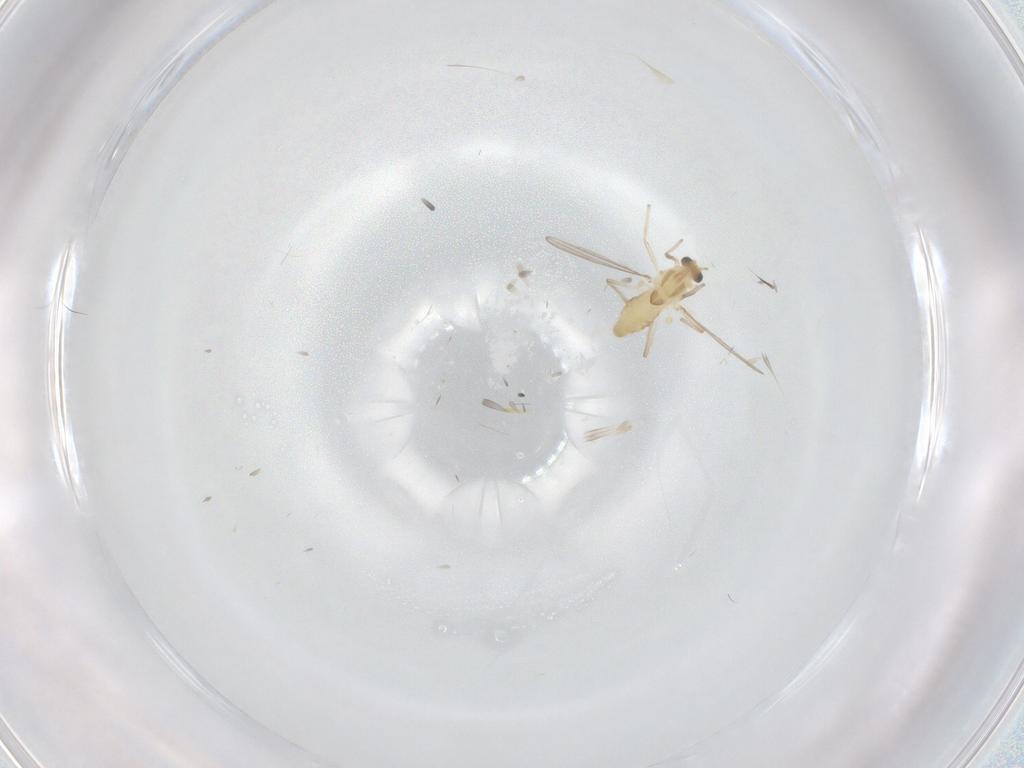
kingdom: Animalia
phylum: Arthropoda
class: Insecta
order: Diptera
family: Chironomidae
